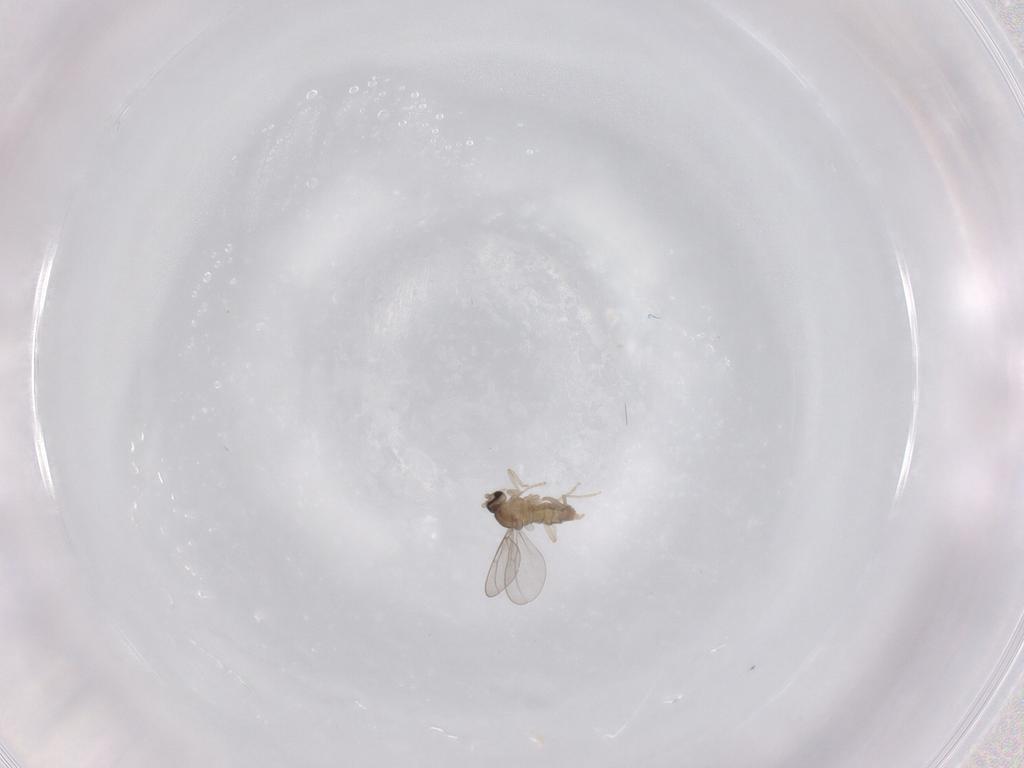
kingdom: Animalia
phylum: Arthropoda
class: Insecta
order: Diptera
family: Cecidomyiidae
